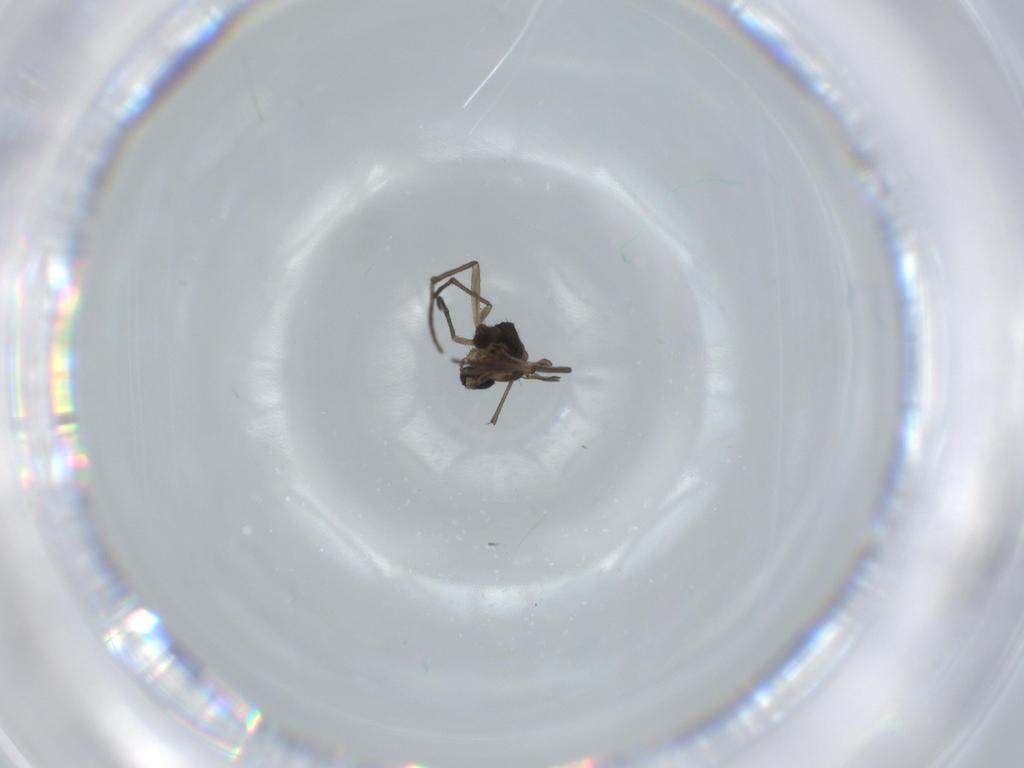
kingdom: Animalia
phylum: Arthropoda
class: Insecta
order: Diptera
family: Sciaridae
